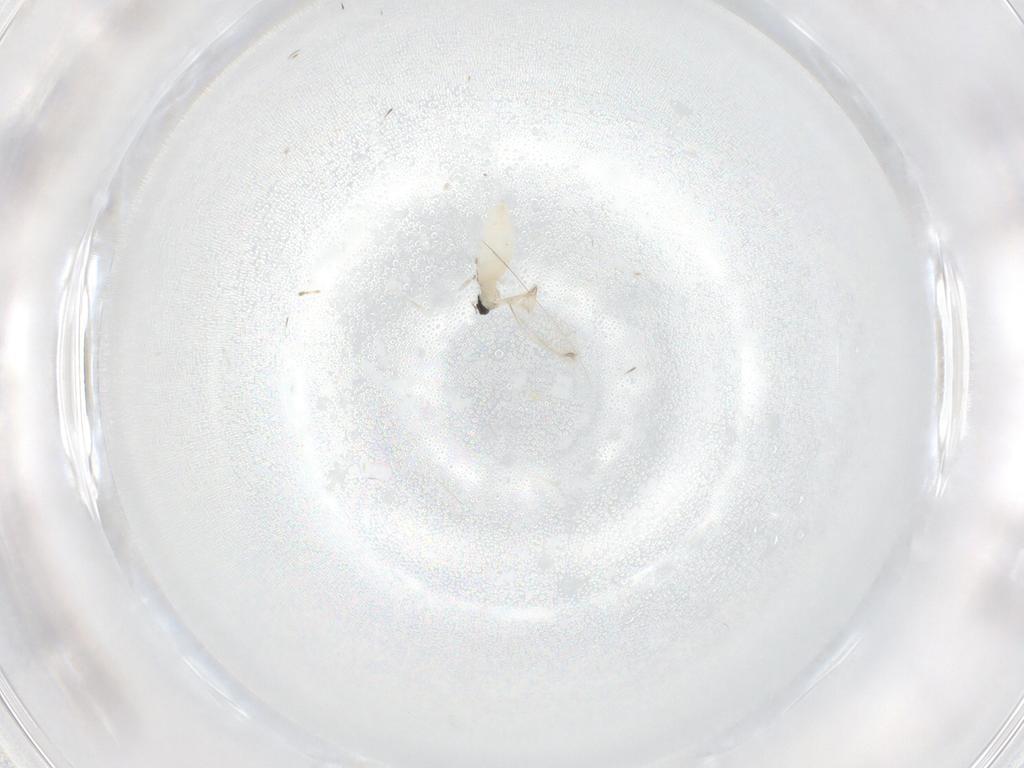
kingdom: Animalia
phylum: Arthropoda
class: Insecta
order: Diptera
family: Cecidomyiidae
